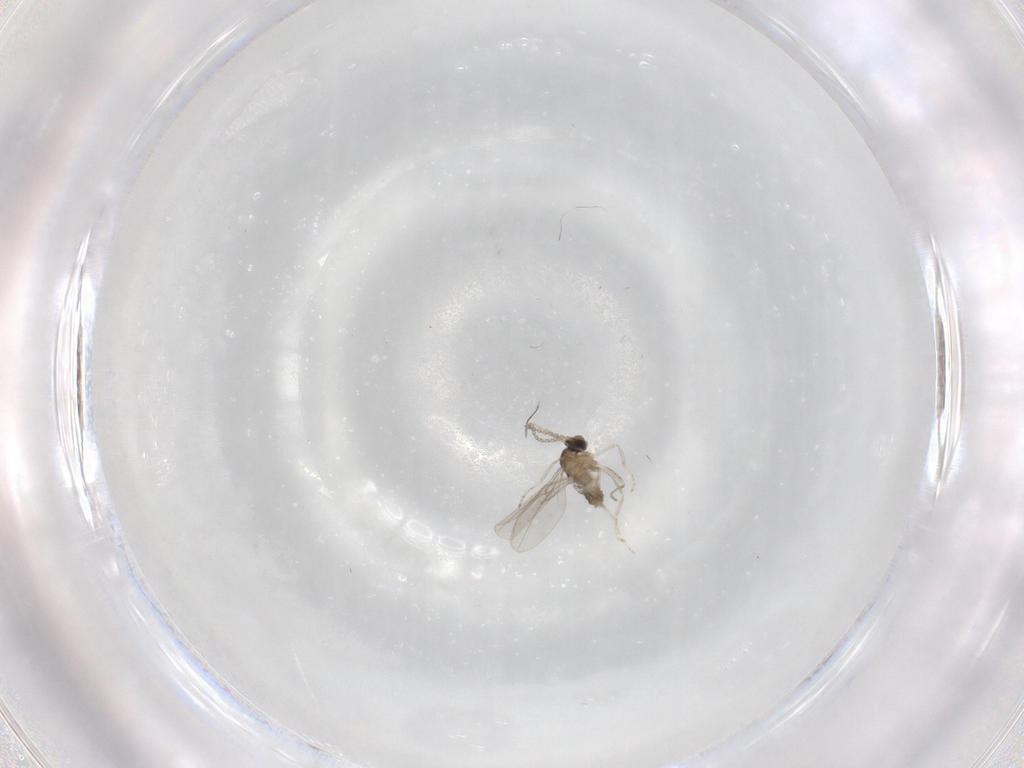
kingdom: Animalia
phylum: Arthropoda
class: Insecta
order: Diptera
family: Cecidomyiidae
